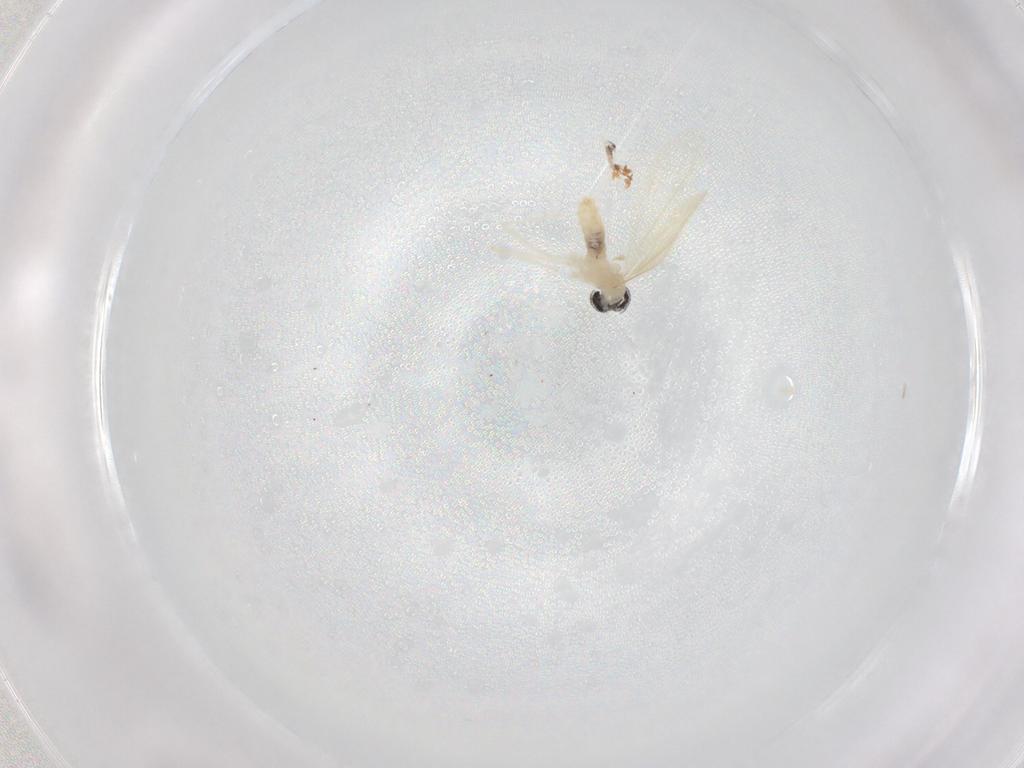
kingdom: Animalia
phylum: Arthropoda
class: Insecta
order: Diptera
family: Cecidomyiidae
